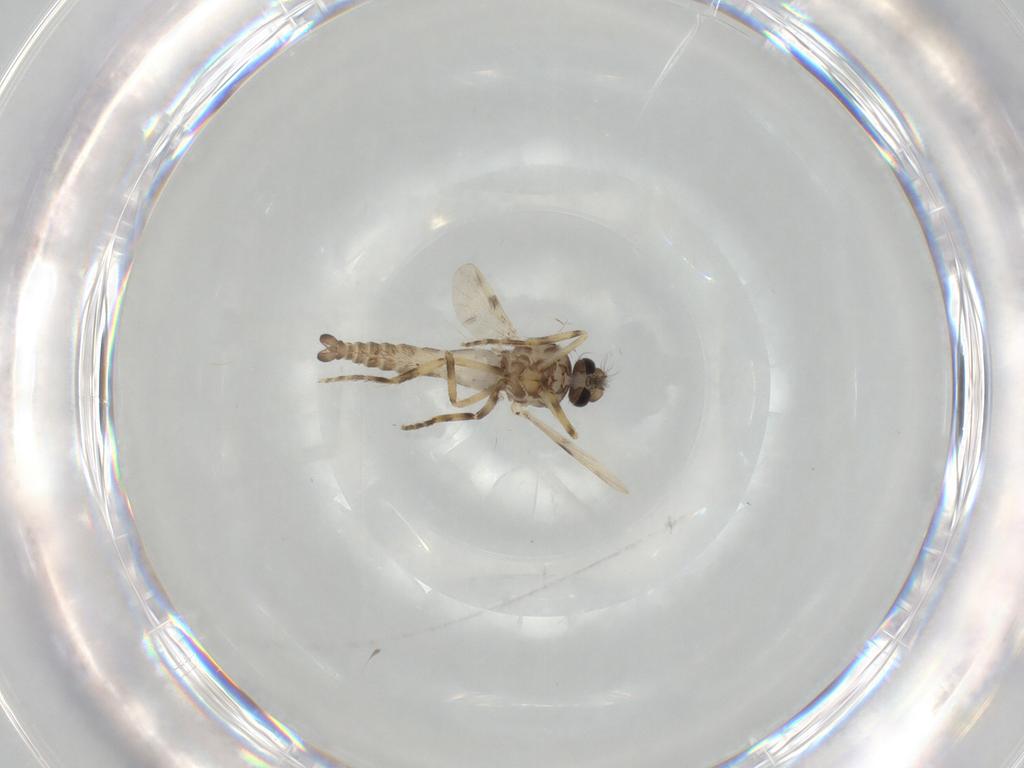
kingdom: Animalia
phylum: Arthropoda
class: Insecta
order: Diptera
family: Ceratopogonidae
